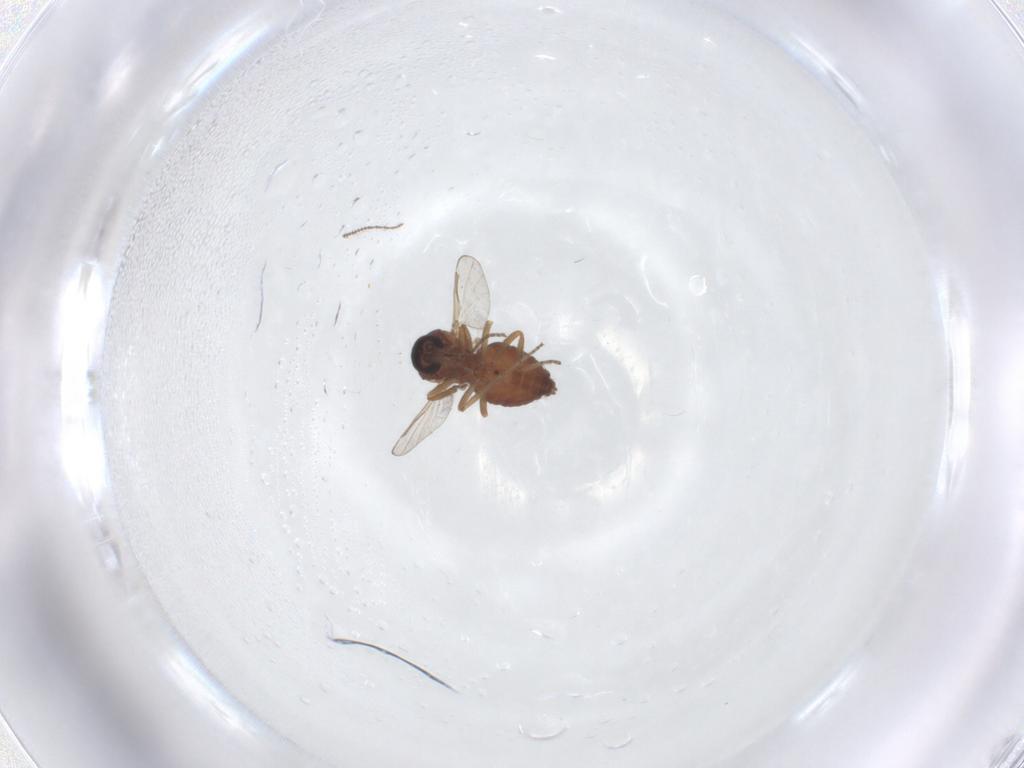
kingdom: Animalia
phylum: Arthropoda
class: Insecta
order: Diptera
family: Ceratopogonidae
